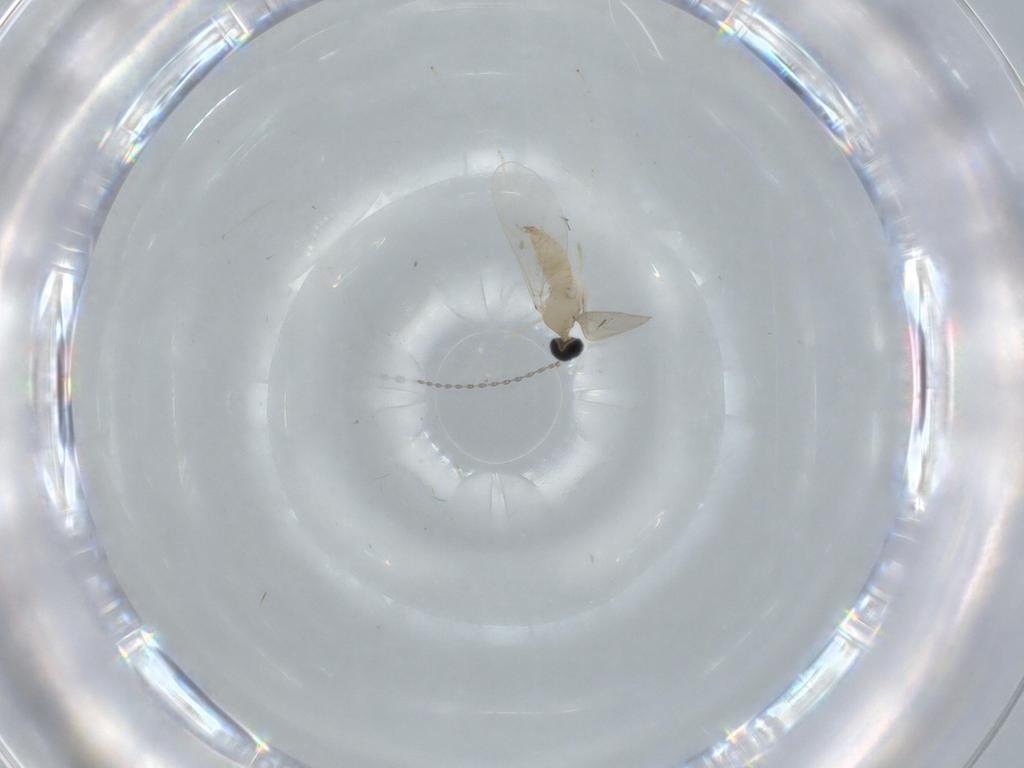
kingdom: Animalia
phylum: Arthropoda
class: Insecta
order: Diptera
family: Cecidomyiidae
